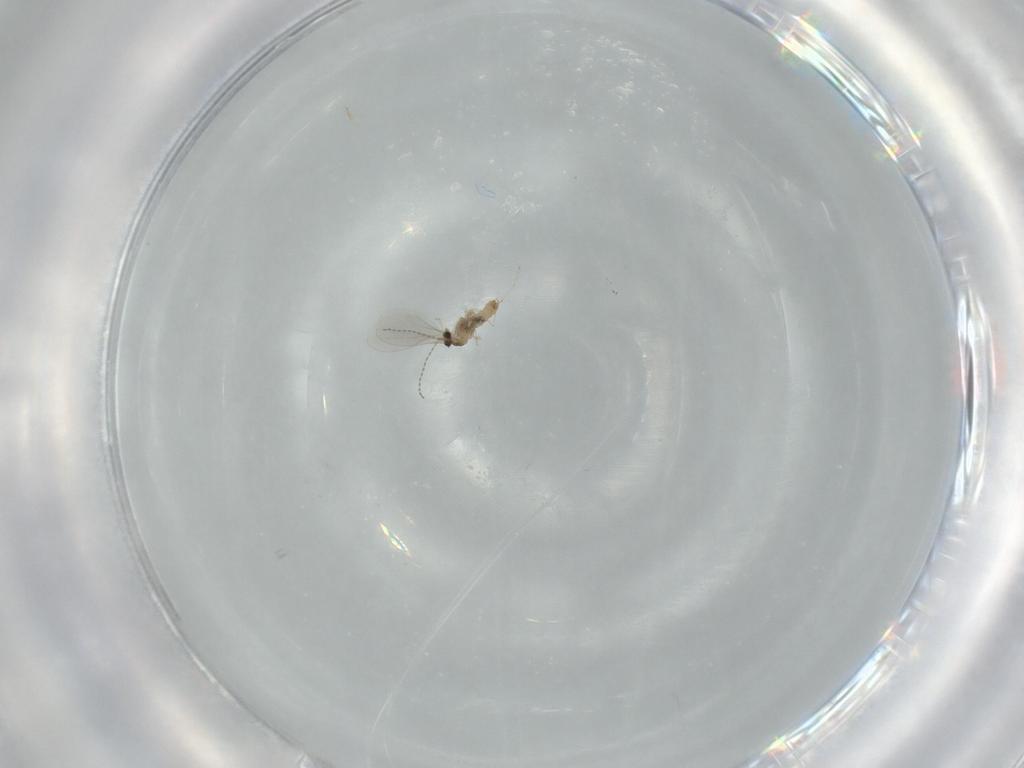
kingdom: Animalia
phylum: Arthropoda
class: Insecta
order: Diptera
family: Cecidomyiidae
